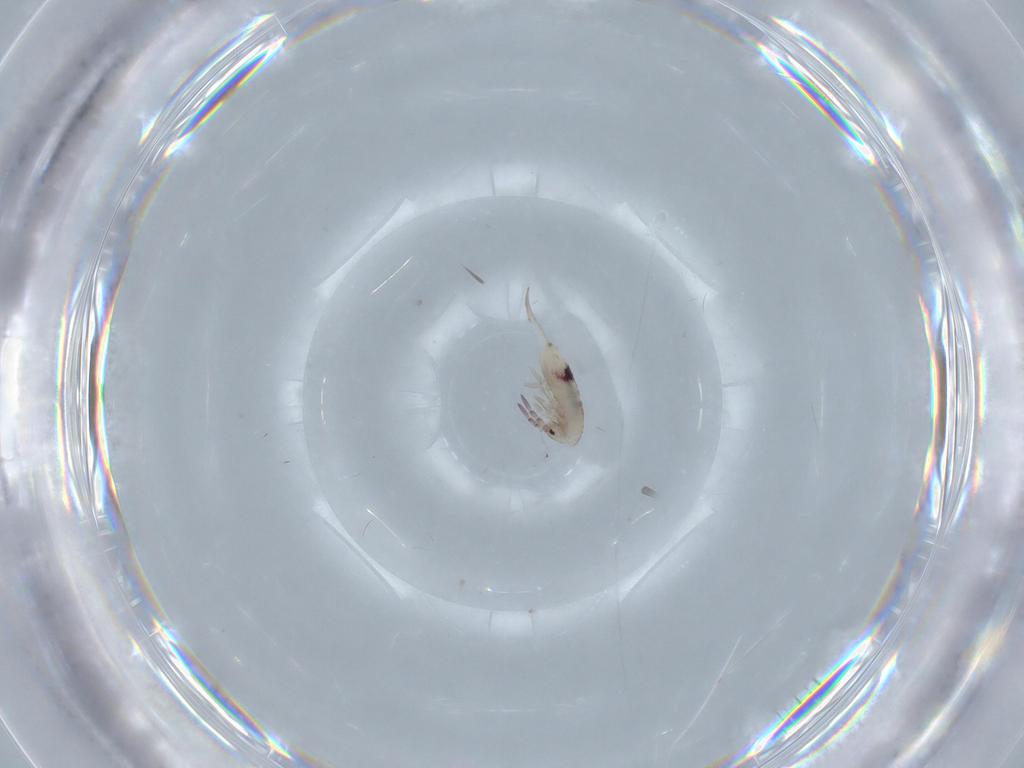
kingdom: Animalia
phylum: Arthropoda
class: Collembola
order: Entomobryomorpha
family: Entomobryidae
